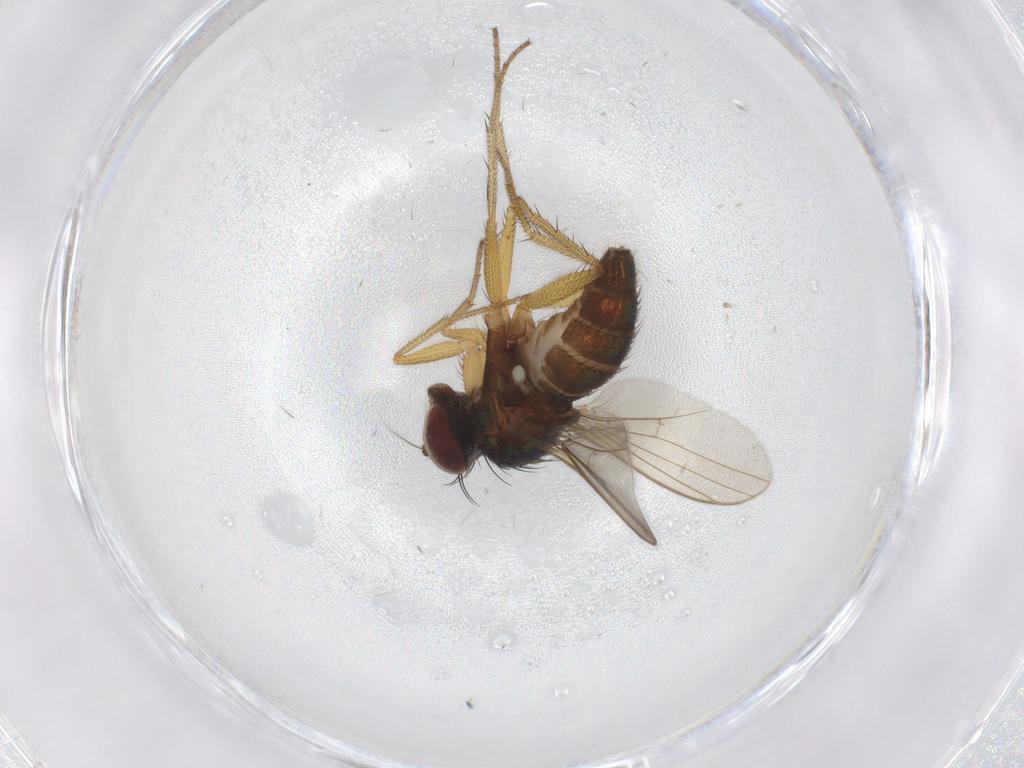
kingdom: Animalia
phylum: Arthropoda
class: Insecta
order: Diptera
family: Dolichopodidae
